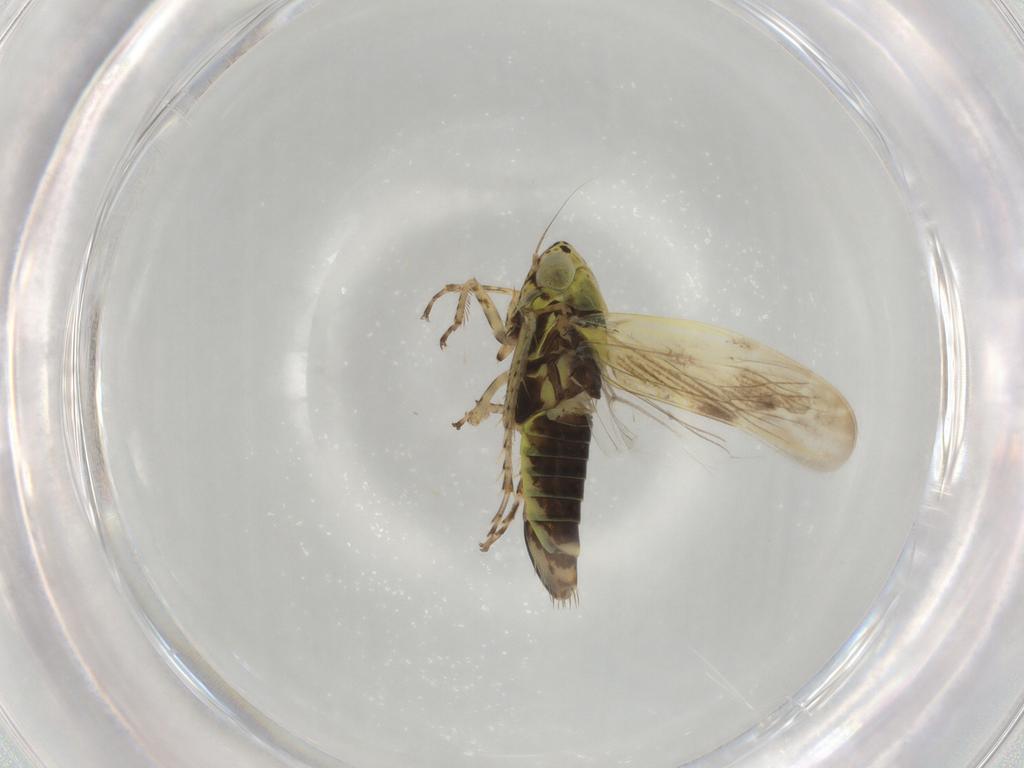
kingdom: Animalia
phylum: Arthropoda
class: Insecta
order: Hemiptera
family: Cicadellidae
